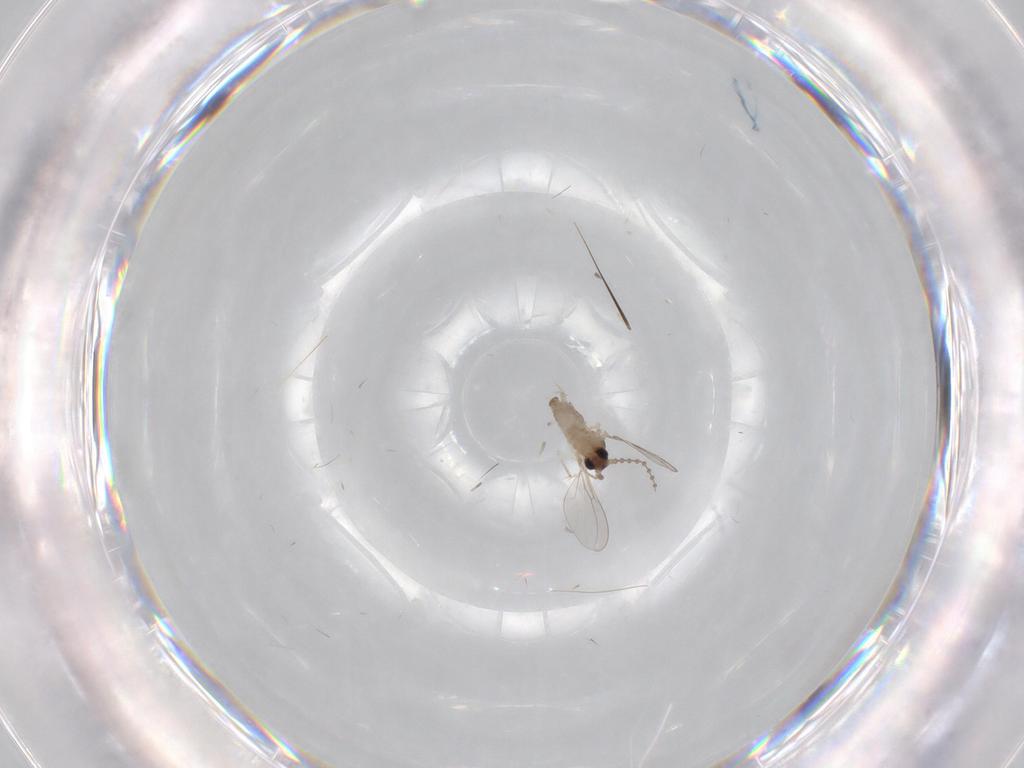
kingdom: Animalia
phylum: Arthropoda
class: Insecta
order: Diptera
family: Cecidomyiidae
